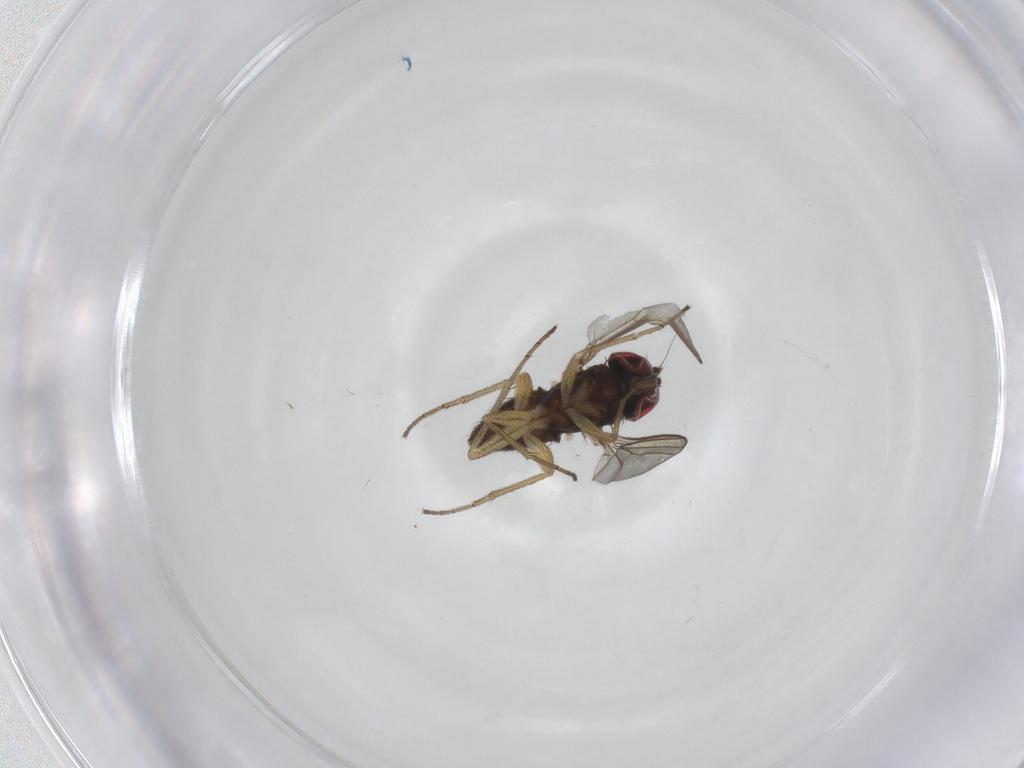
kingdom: Animalia
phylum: Arthropoda
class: Insecta
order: Diptera
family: Dolichopodidae
